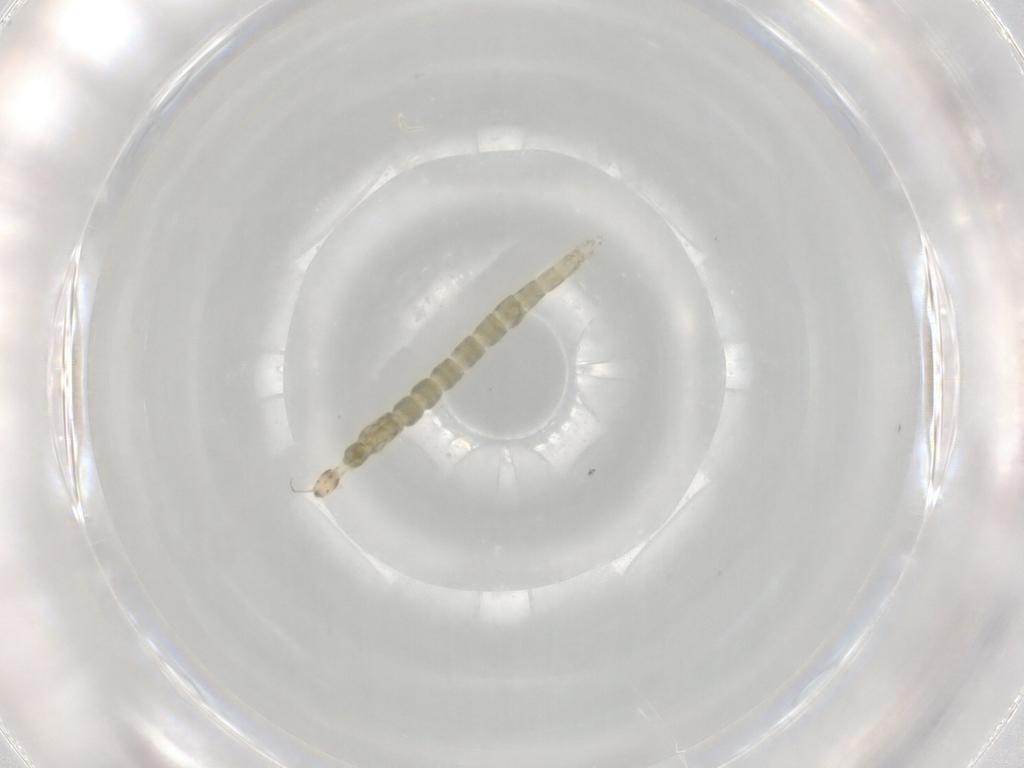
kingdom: Animalia
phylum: Arthropoda
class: Insecta
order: Diptera
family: Chironomidae
